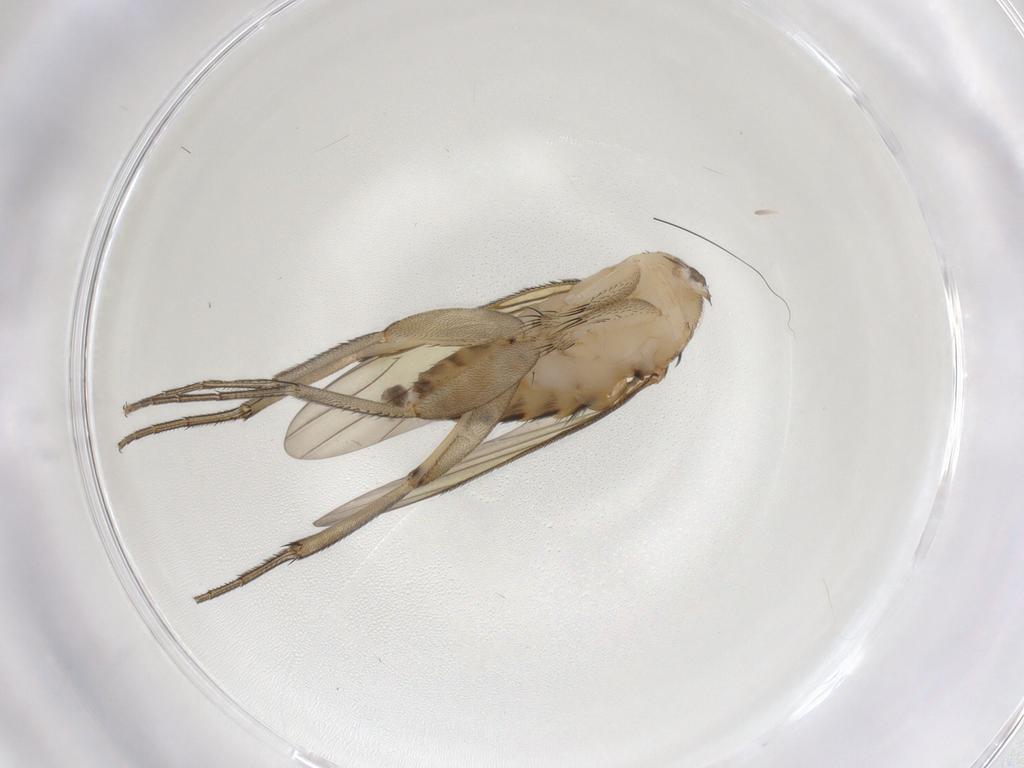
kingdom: Animalia
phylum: Arthropoda
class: Insecta
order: Diptera
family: Phoridae
